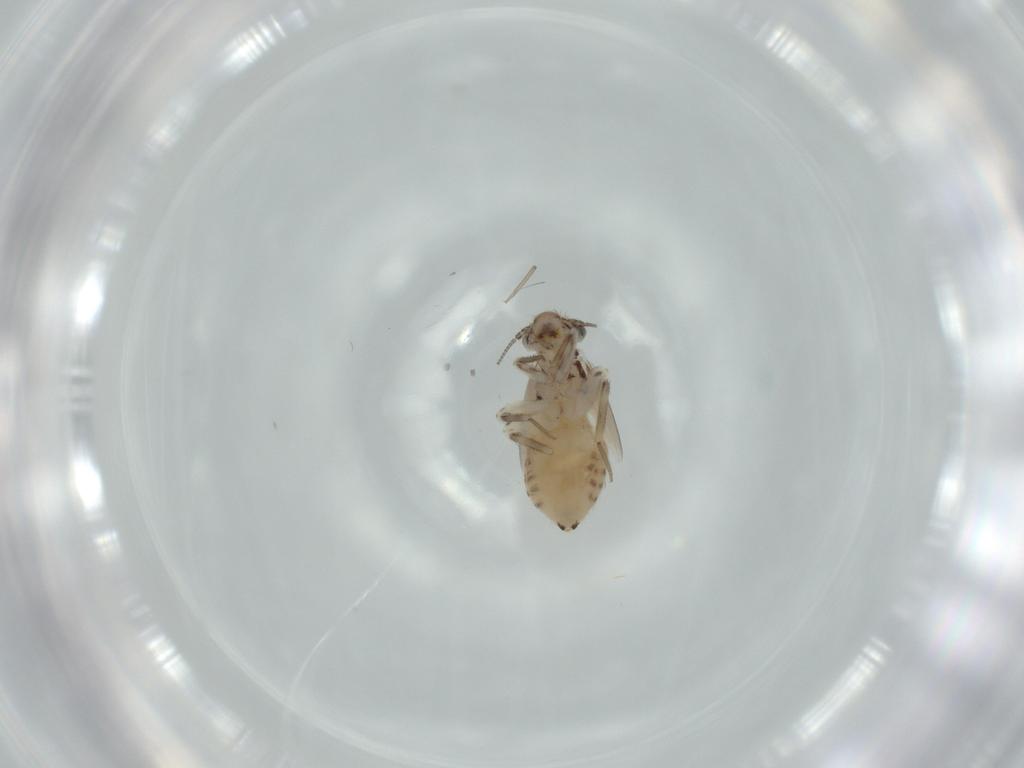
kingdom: Animalia
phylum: Arthropoda
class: Insecta
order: Psocodea
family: Lepidopsocidae
